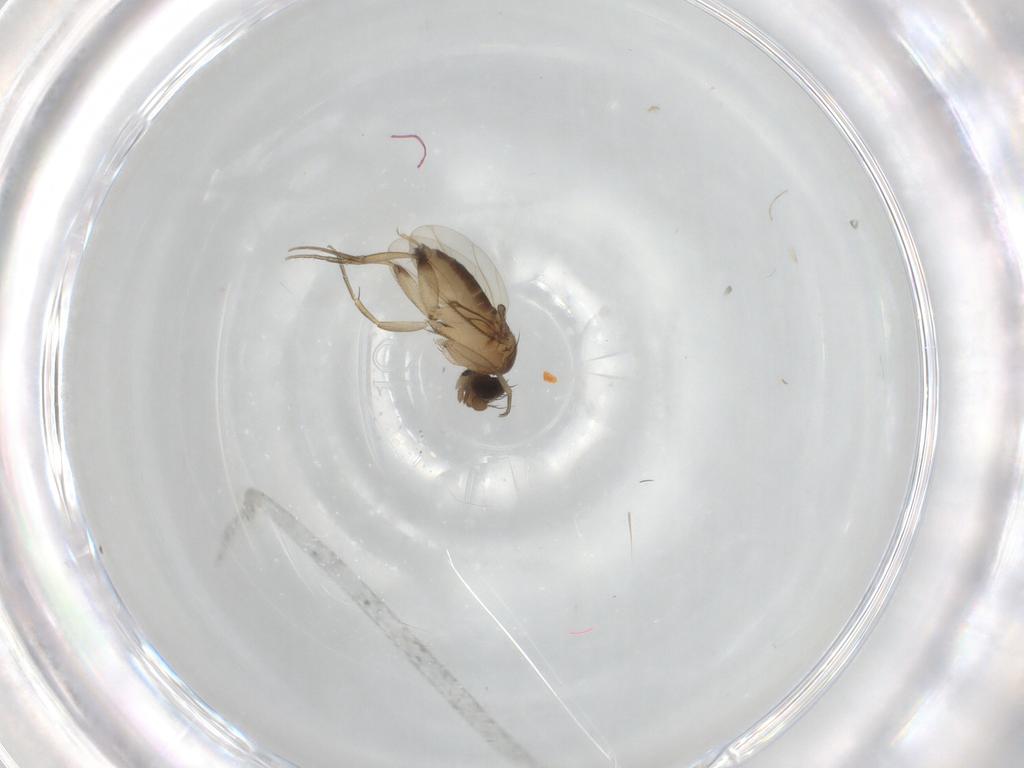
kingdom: Animalia
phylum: Arthropoda
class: Insecta
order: Diptera
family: Phoridae
